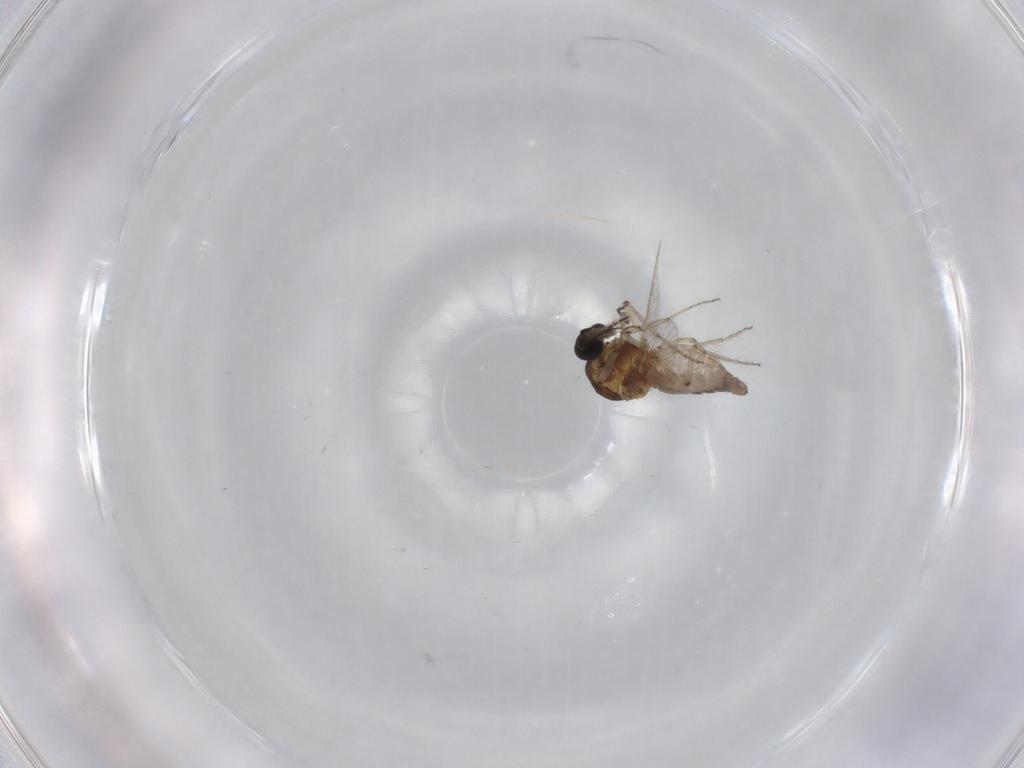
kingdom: Animalia
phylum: Arthropoda
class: Insecta
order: Diptera
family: Ceratopogonidae
